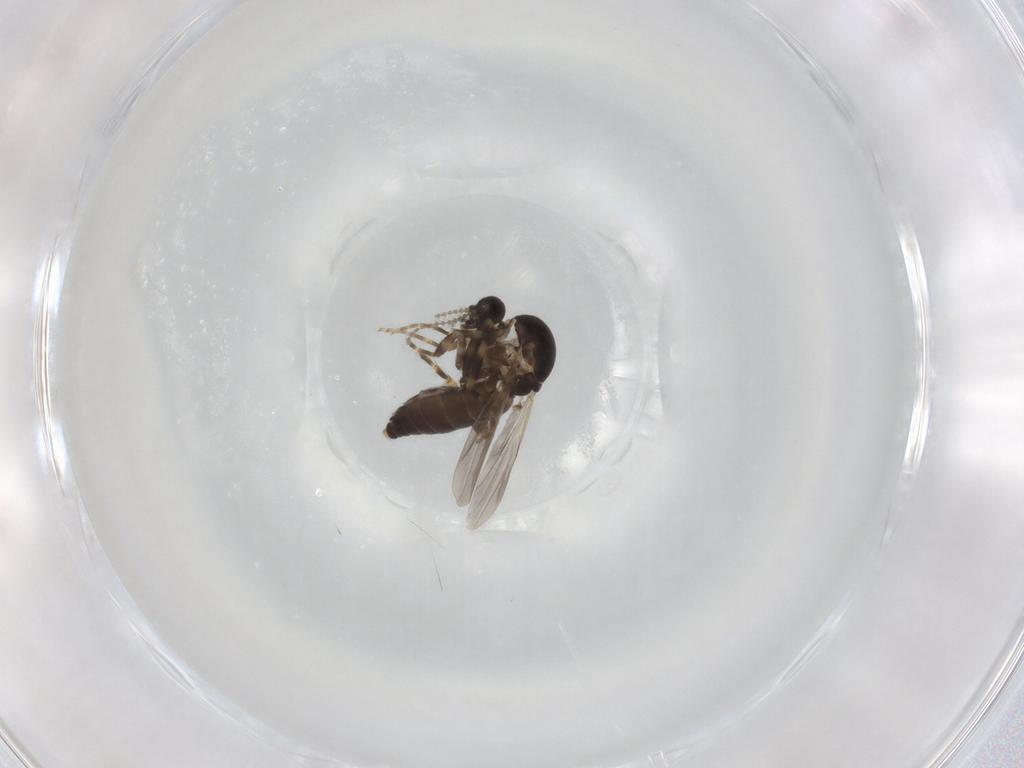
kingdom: Animalia
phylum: Arthropoda
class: Insecta
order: Diptera
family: Ceratopogonidae
